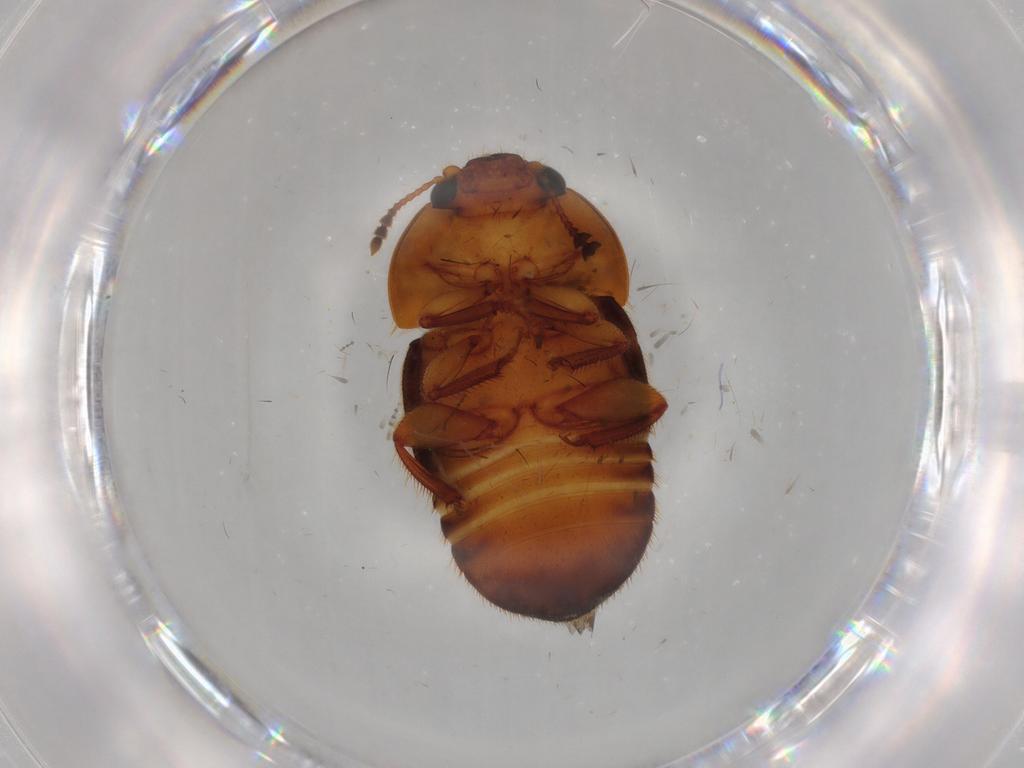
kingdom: Animalia
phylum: Arthropoda
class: Insecta
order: Coleoptera
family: Nitidulidae
